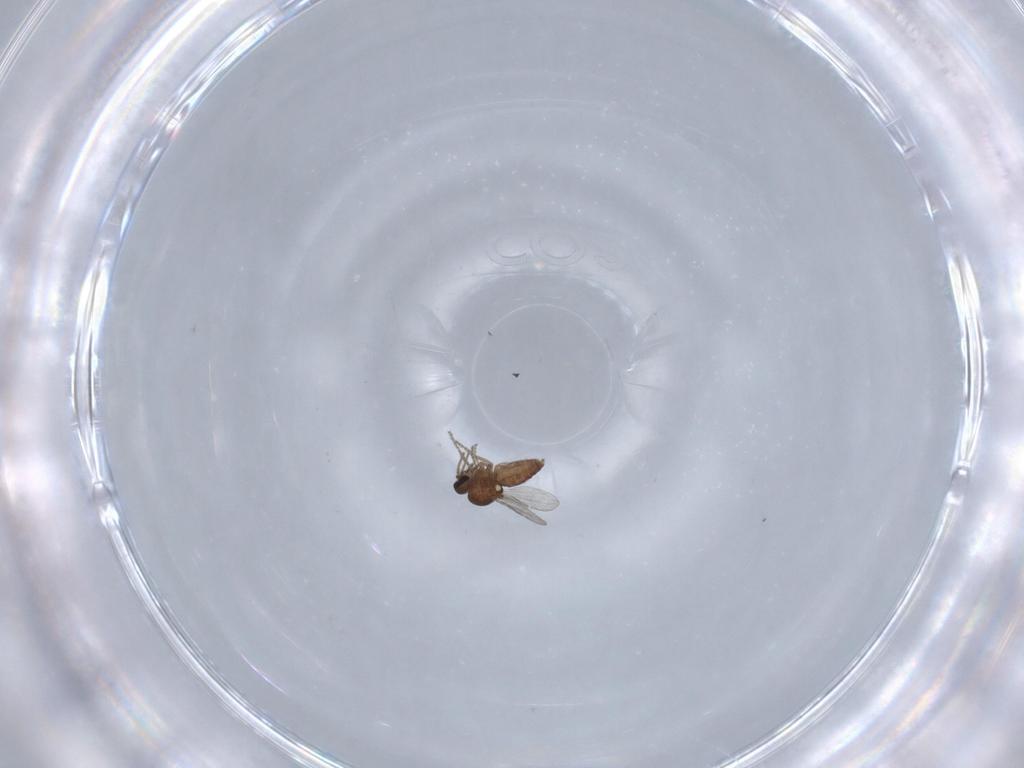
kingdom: Animalia
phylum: Arthropoda
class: Insecta
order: Diptera
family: Ceratopogonidae
